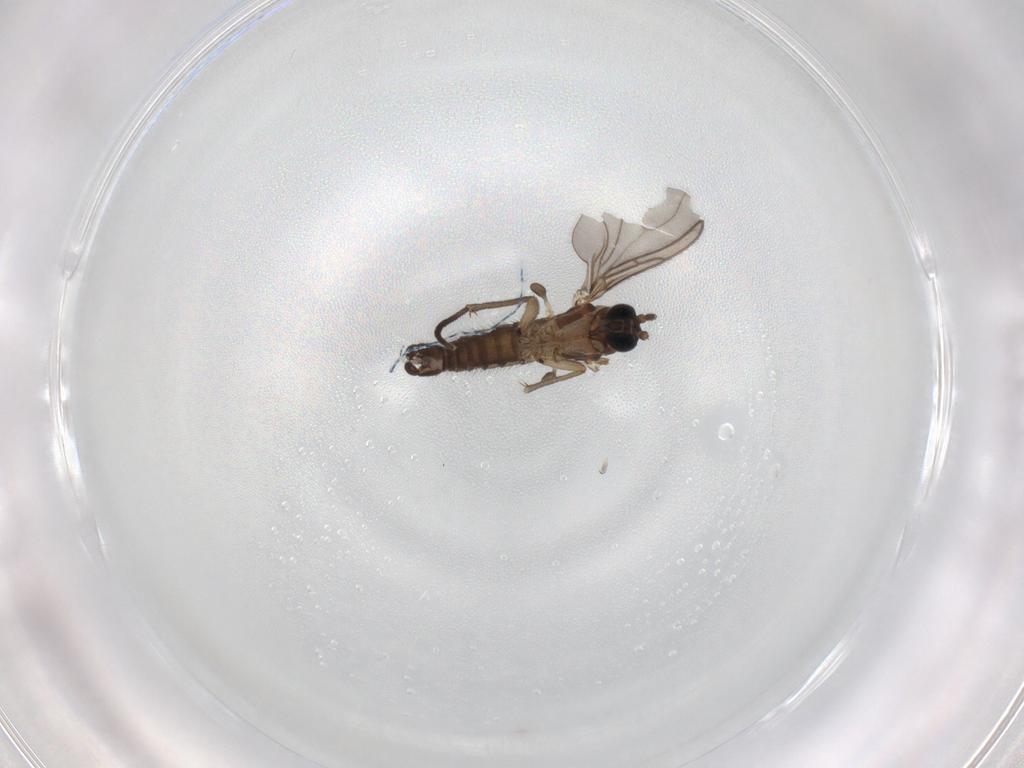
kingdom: Animalia
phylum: Arthropoda
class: Insecta
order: Diptera
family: Sciaridae
